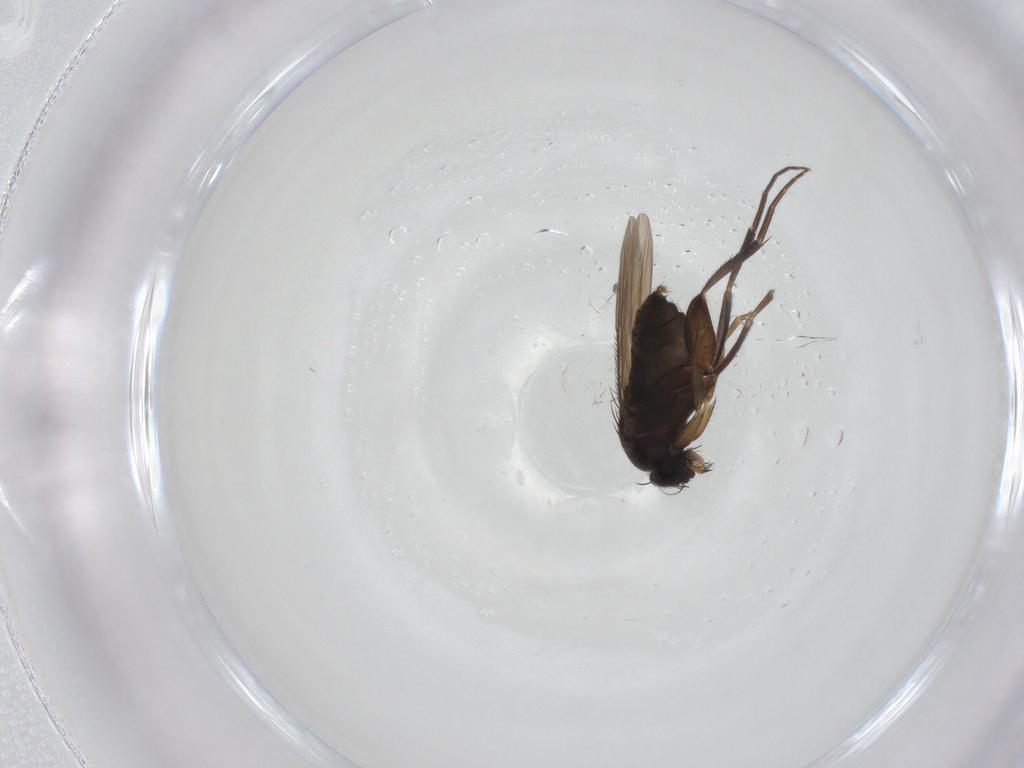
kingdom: Animalia
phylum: Arthropoda
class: Insecta
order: Diptera
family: Phoridae
